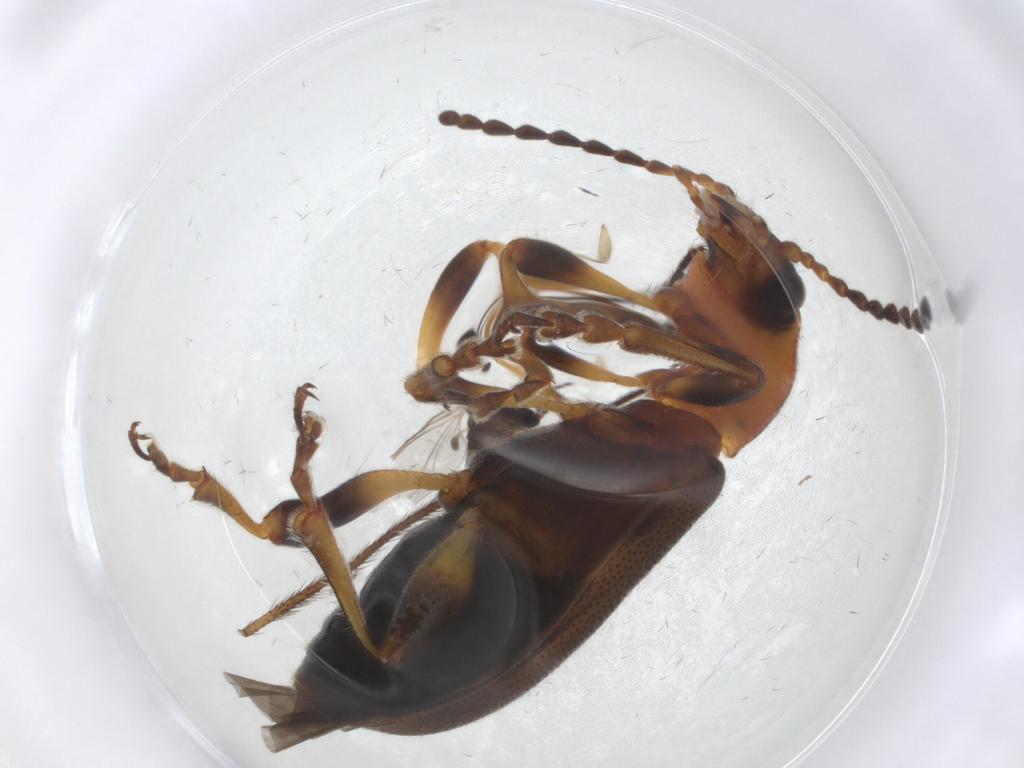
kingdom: Animalia
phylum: Arthropoda
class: Insecta
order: Coleoptera
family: Orsodacnidae
